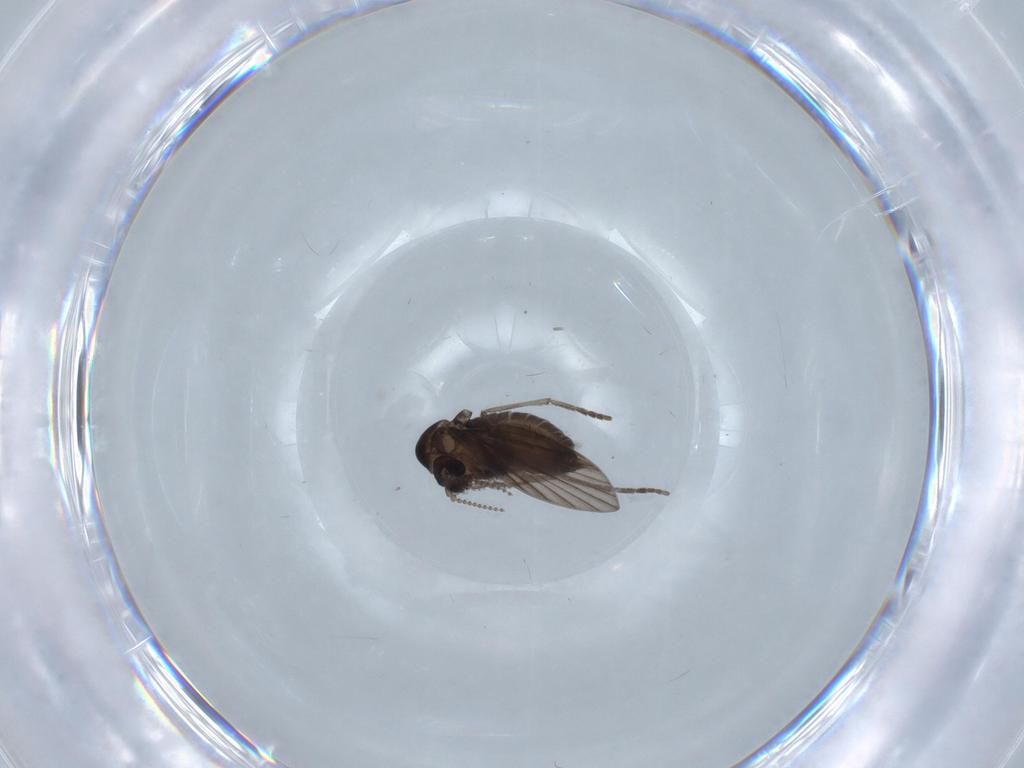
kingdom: Animalia
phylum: Arthropoda
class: Insecta
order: Diptera
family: Psychodidae
